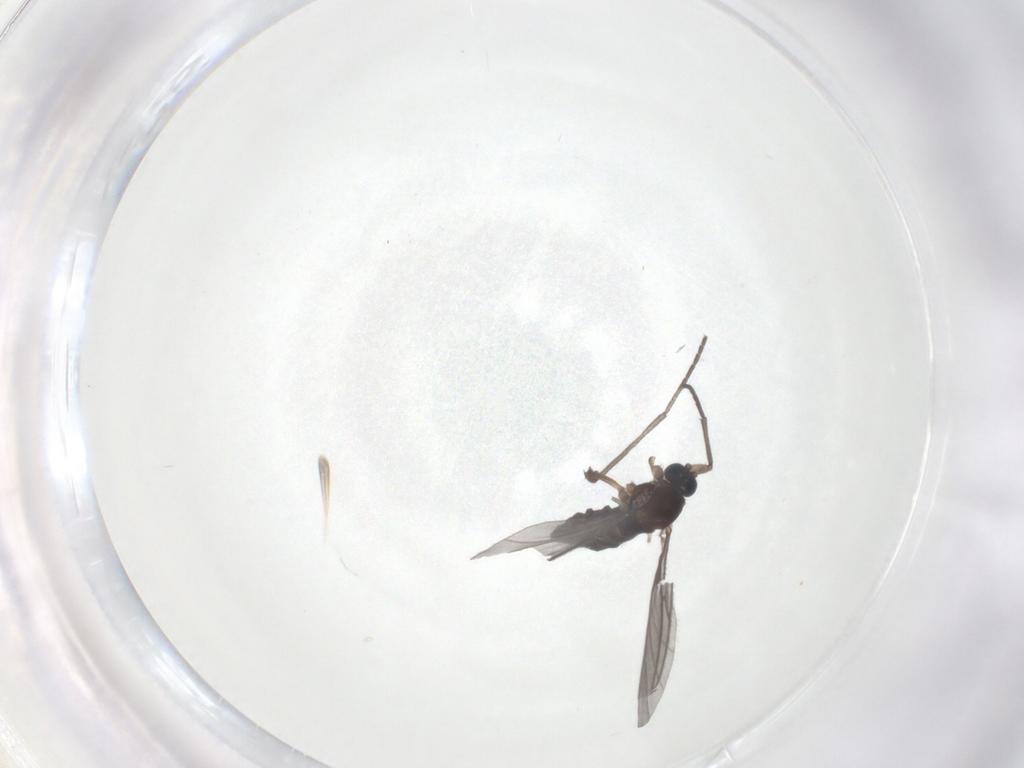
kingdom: Animalia
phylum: Arthropoda
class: Insecta
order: Diptera
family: Sciaridae
